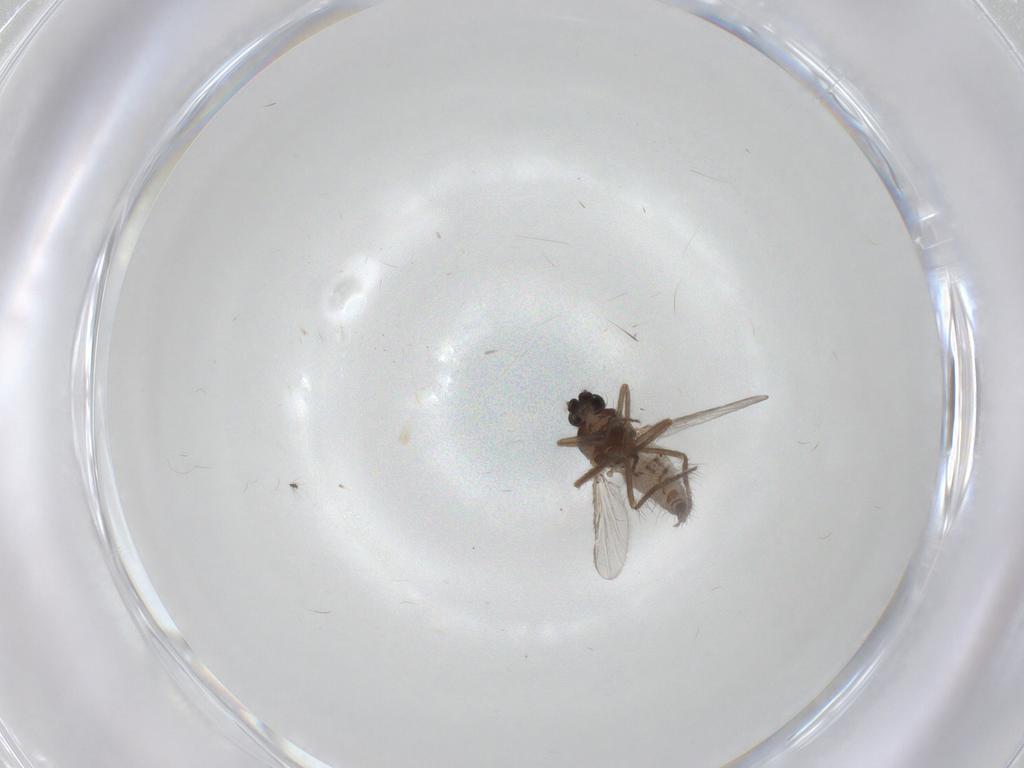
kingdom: Animalia
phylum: Arthropoda
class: Insecta
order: Diptera
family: Ceratopogonidae
